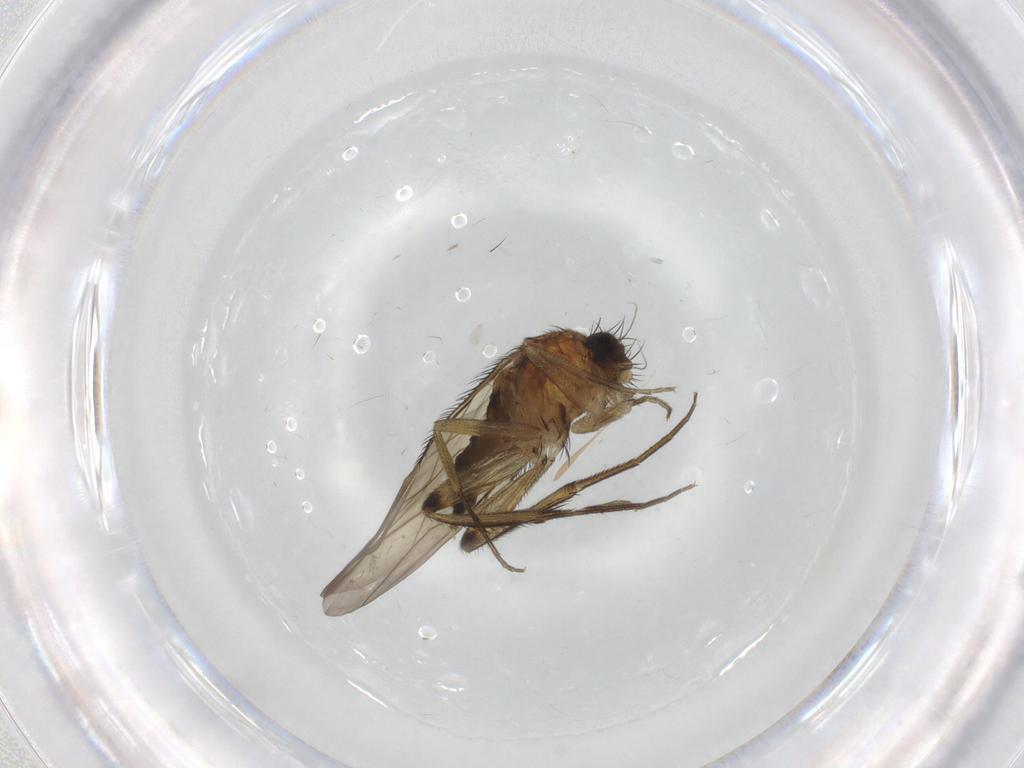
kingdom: Animalia
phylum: Arthropoda
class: Insecta
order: Diptera
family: Phoridae
